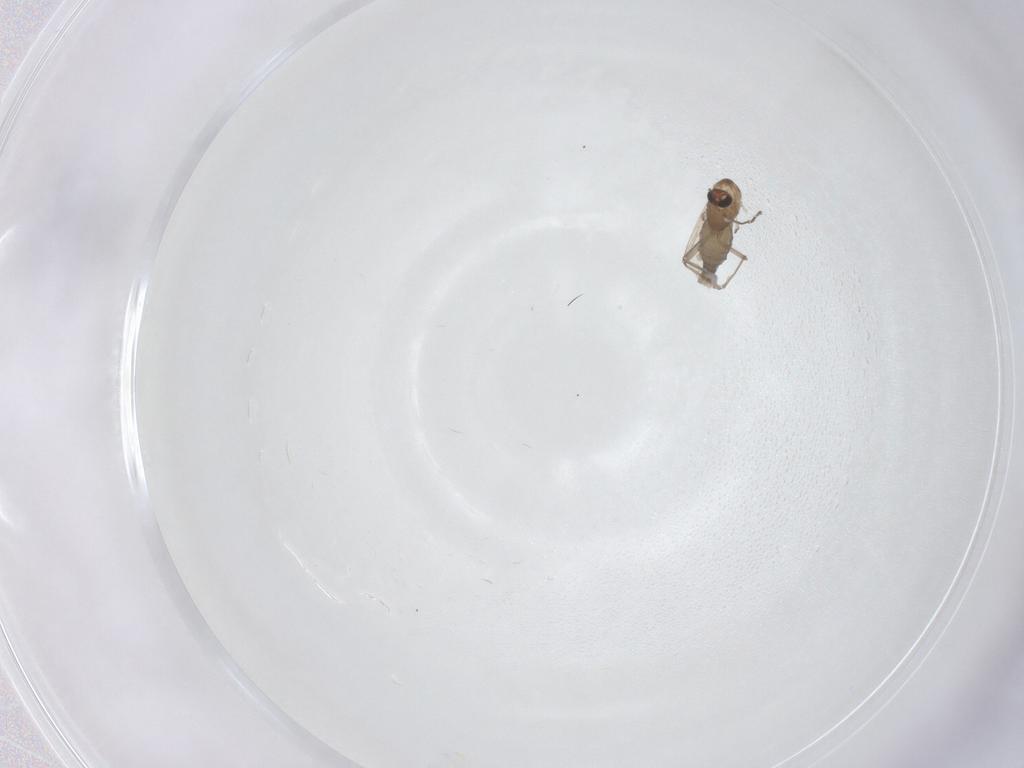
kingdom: Animalia
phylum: Arthropoda
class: Insecta
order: Diptera
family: Chironomidae
